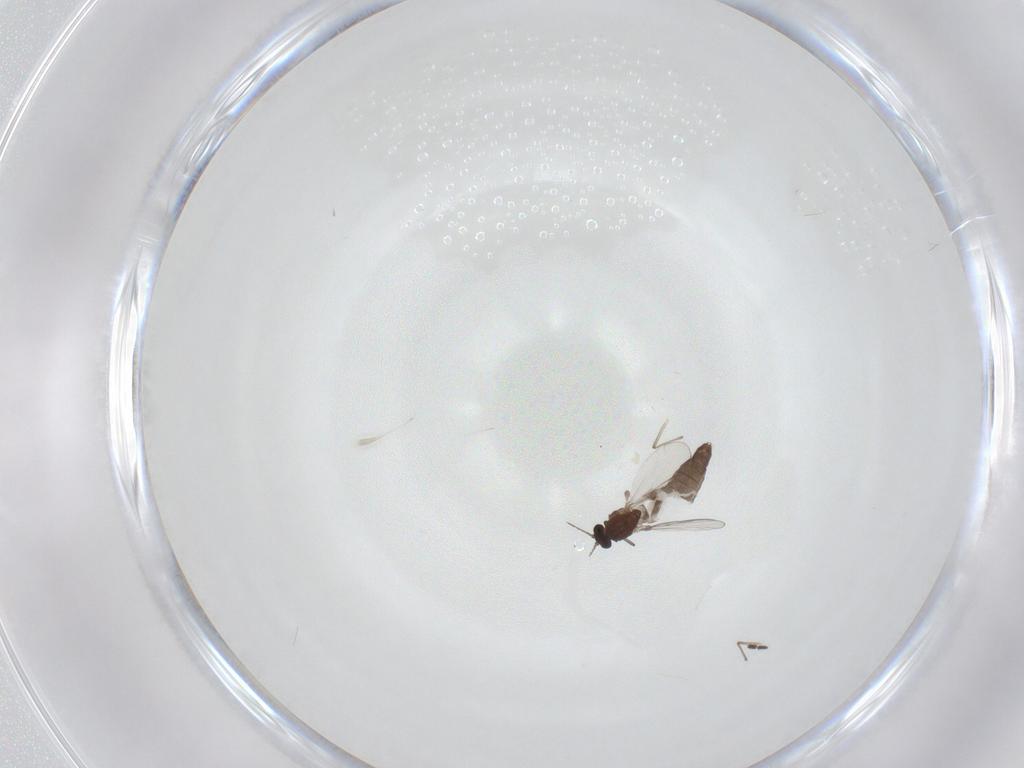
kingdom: Animalia
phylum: Arthropoda
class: Insecta
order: Diptera
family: Chironomidae
